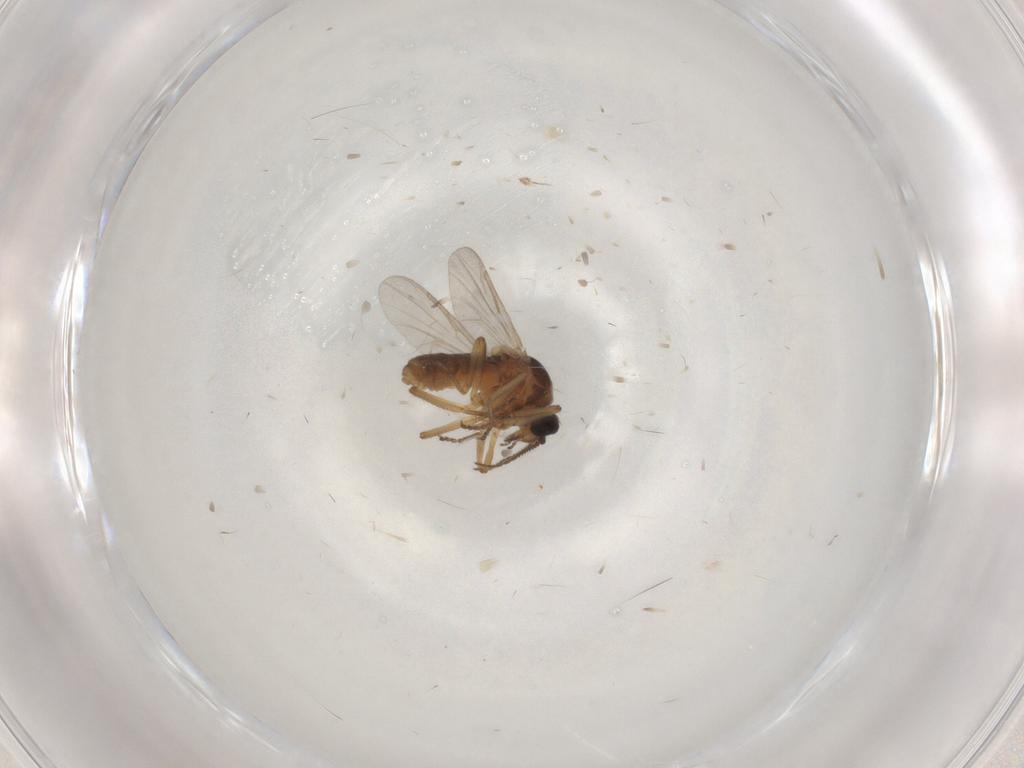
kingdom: Animalia
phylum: Arthropoda
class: Insecta
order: Diptera
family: Ceratopogonidae
